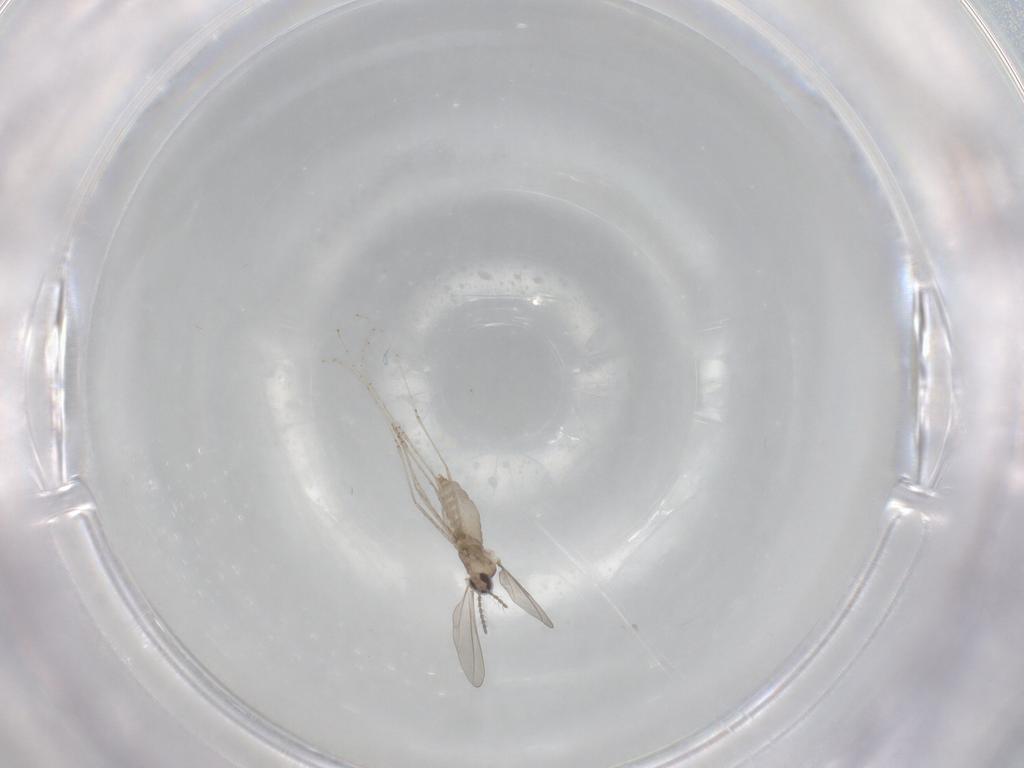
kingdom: Animalia
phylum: Arthropoda
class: Insecta
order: Diptera
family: Cecidomyiidae
